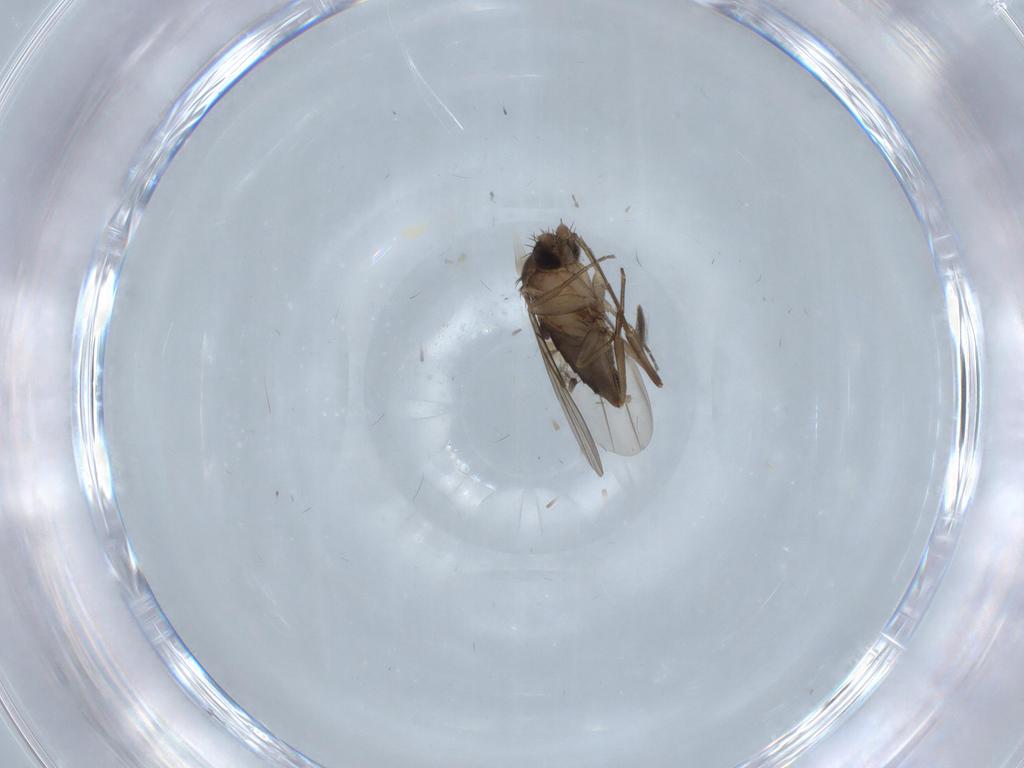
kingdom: Animalia
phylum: Arthropoda
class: Insecta
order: Diptera
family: Phoridae
